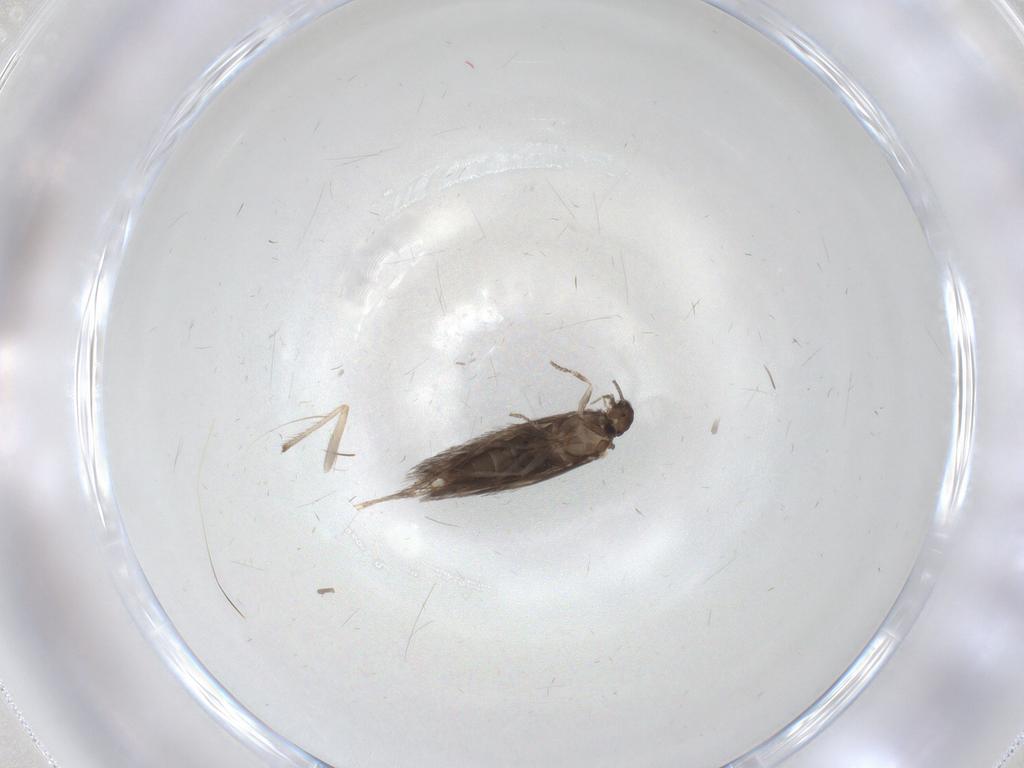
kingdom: Animalia
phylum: Arthropoda
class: Insecta
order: Trichoptera
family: Hydroptilidae
